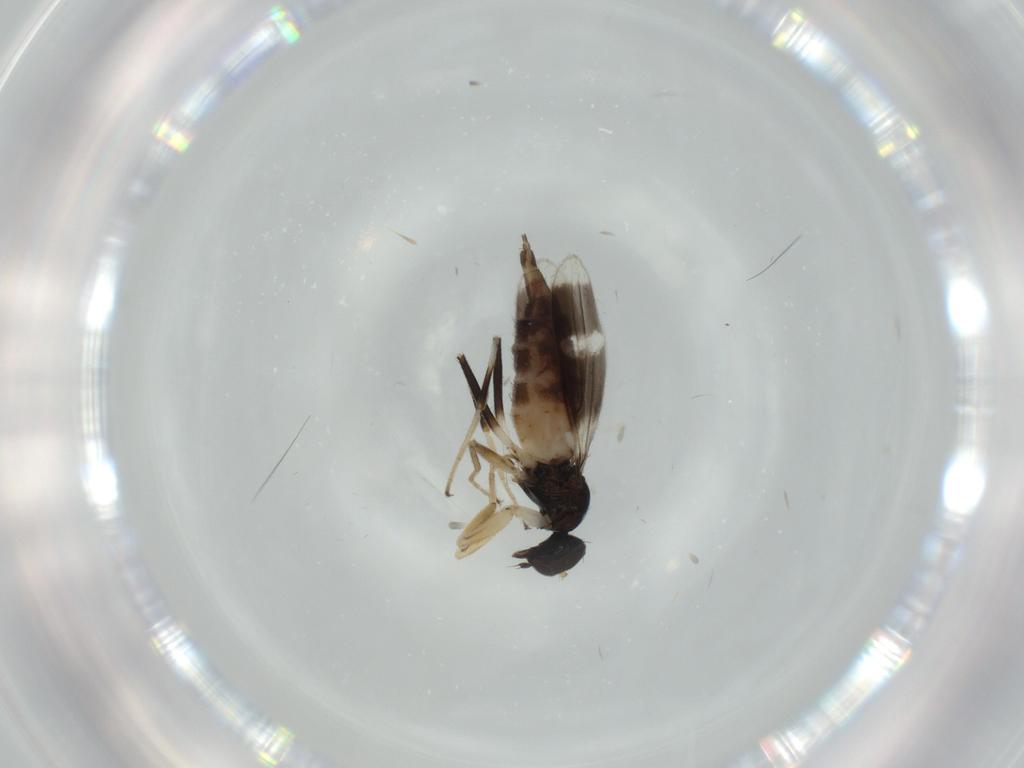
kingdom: Animalia
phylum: Arthropoda
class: Insecta
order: Diptera
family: Hybotidae
